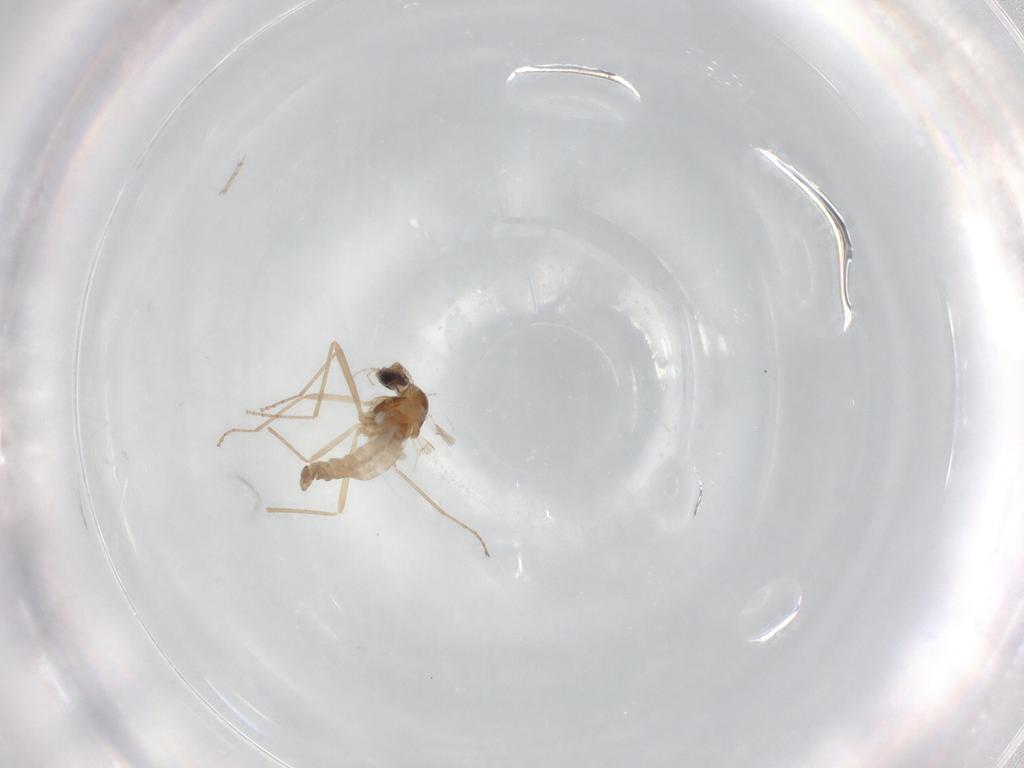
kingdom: Animalia
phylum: Arthropoda
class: Insecta
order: Diptera
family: Cecidomyiidae
